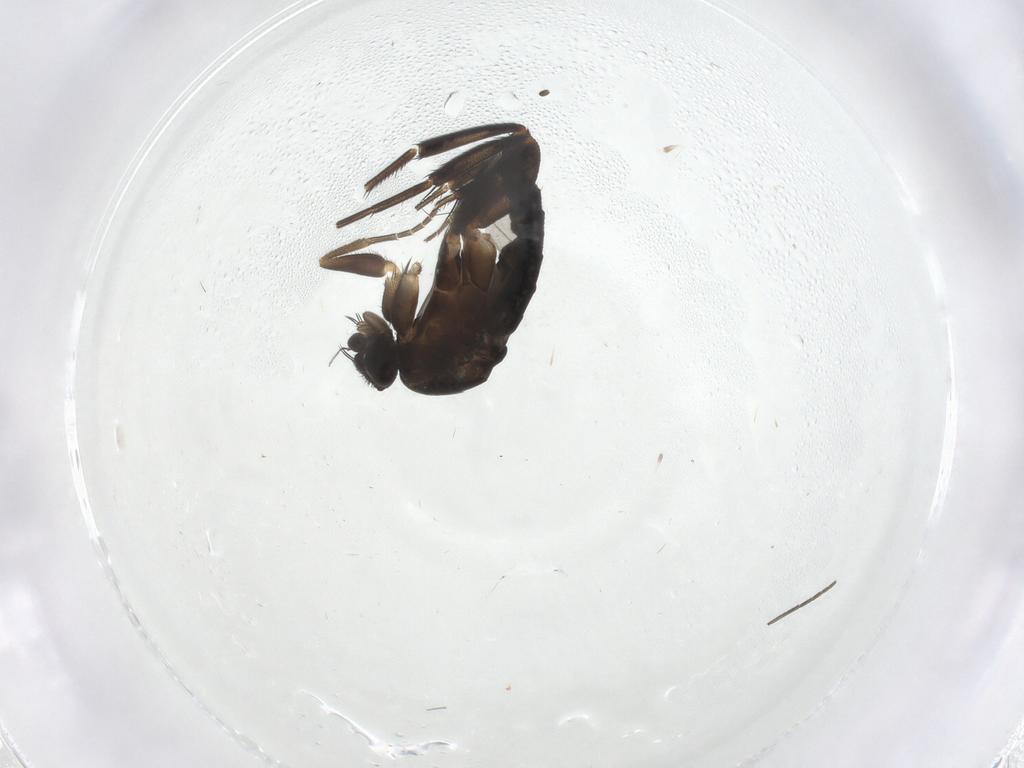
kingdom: Animalia
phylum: Arthropoda
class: Insecta
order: Diptera
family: Phoridae
